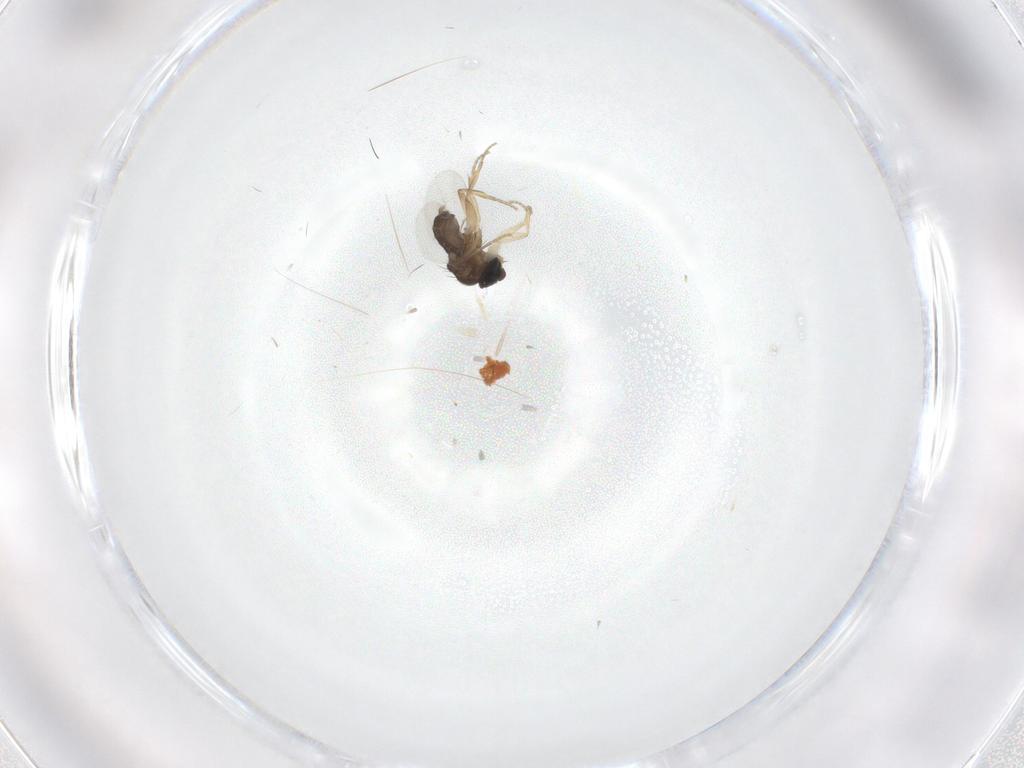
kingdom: Animalia
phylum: Arthropoda
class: Insecta
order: Diptera
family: Phoridae
